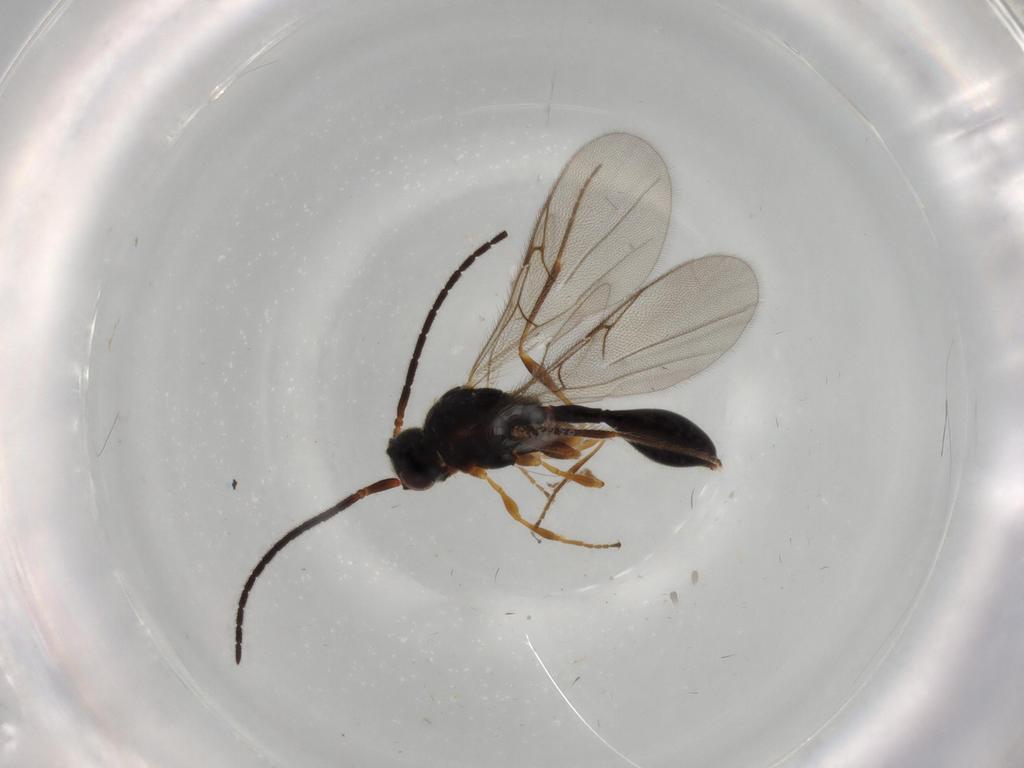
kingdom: Animalia
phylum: Arthropoda
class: Insecta
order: Hymenoptera
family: Diapriidae
